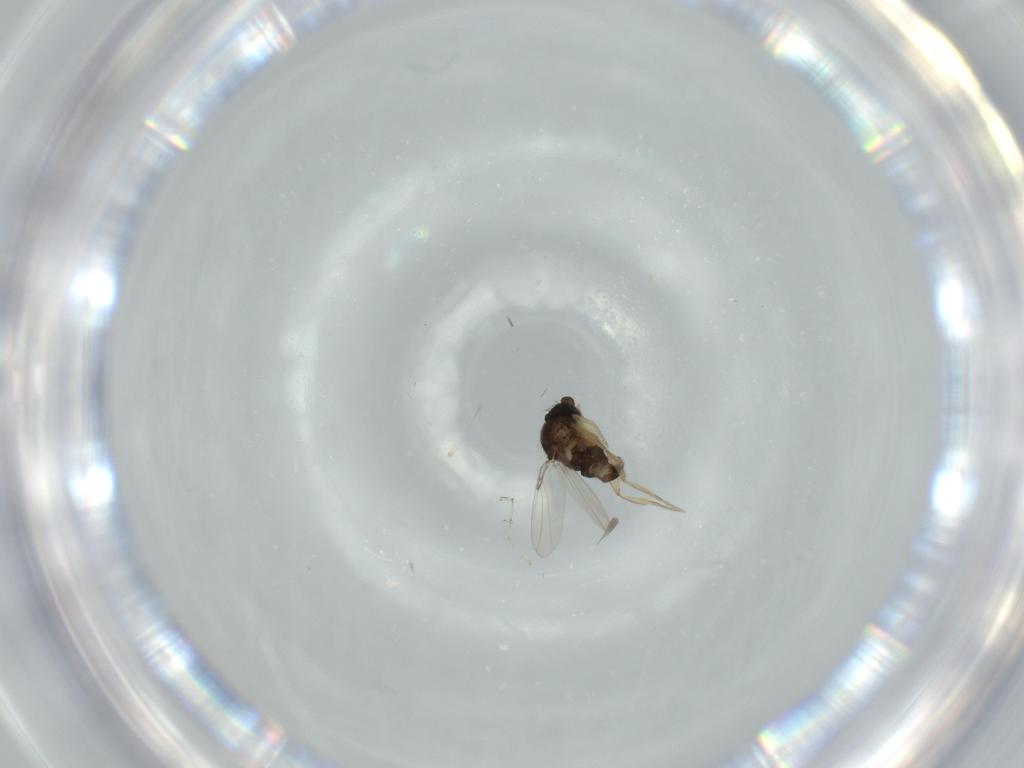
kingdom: Animalia
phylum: Arthropoda
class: Insecta
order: Diptera
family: Phoridae
